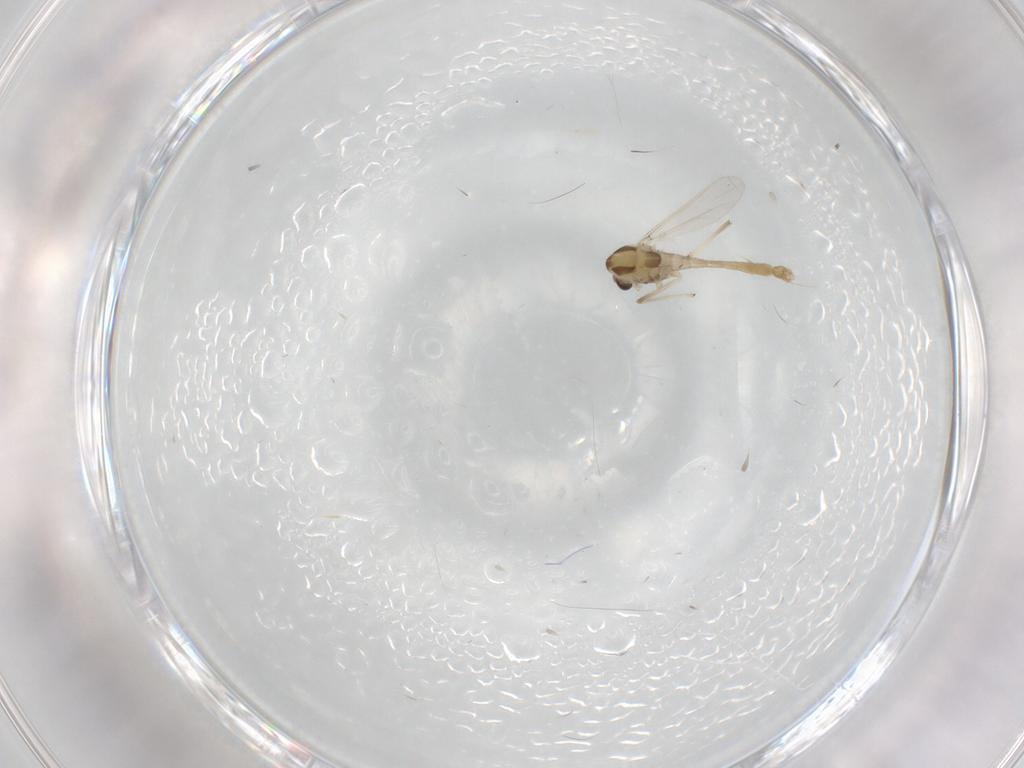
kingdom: Animalia
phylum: Arthropoda
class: Insecta
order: Diptera
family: Chironomidae
